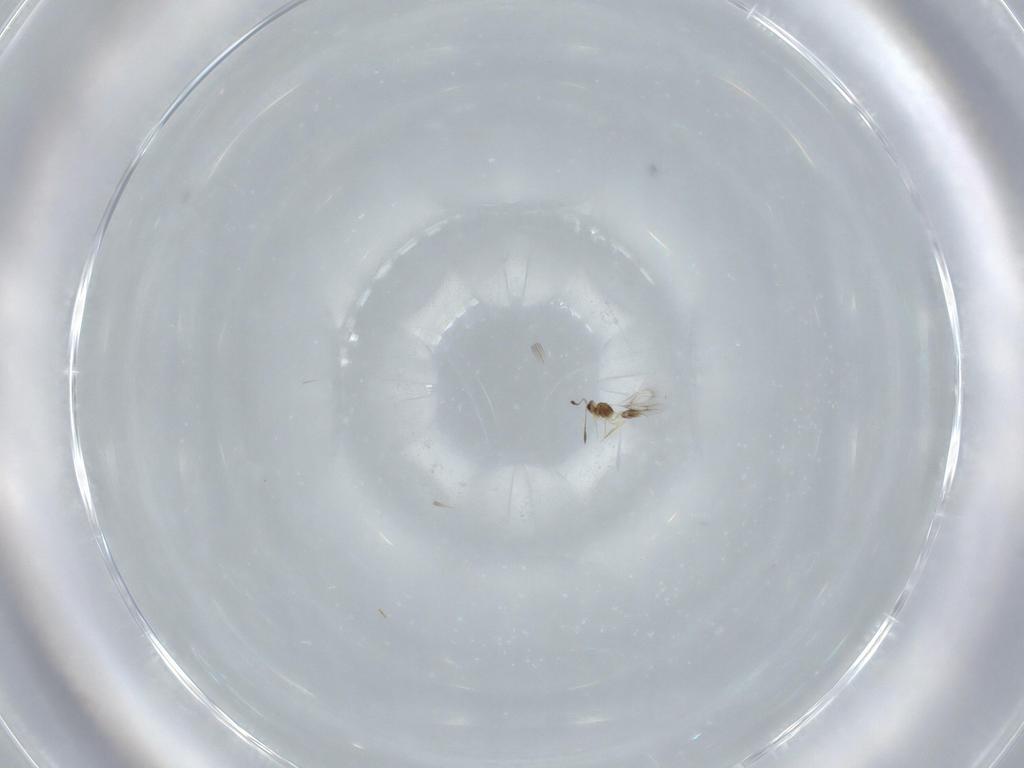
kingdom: Animalia
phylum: Arthropoda
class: Insecta
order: Hymenoptera
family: Mymarommatidae
